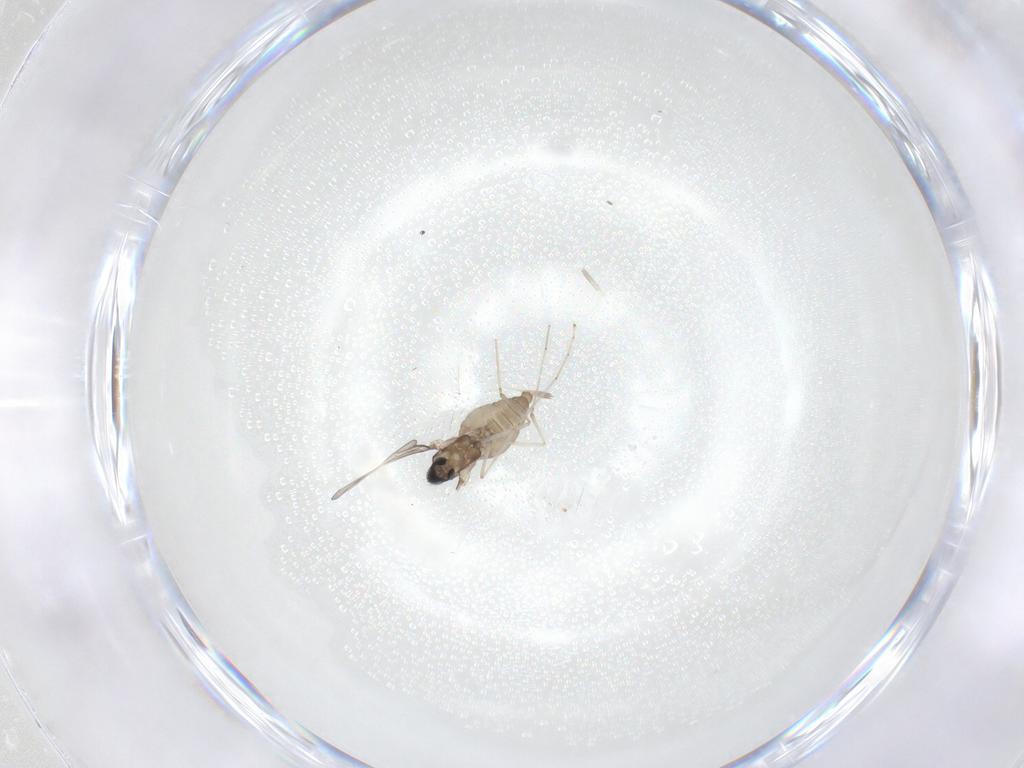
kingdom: Animalia
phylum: Arthropoda
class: Insecta
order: Diptera
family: Cecidomyiidae
